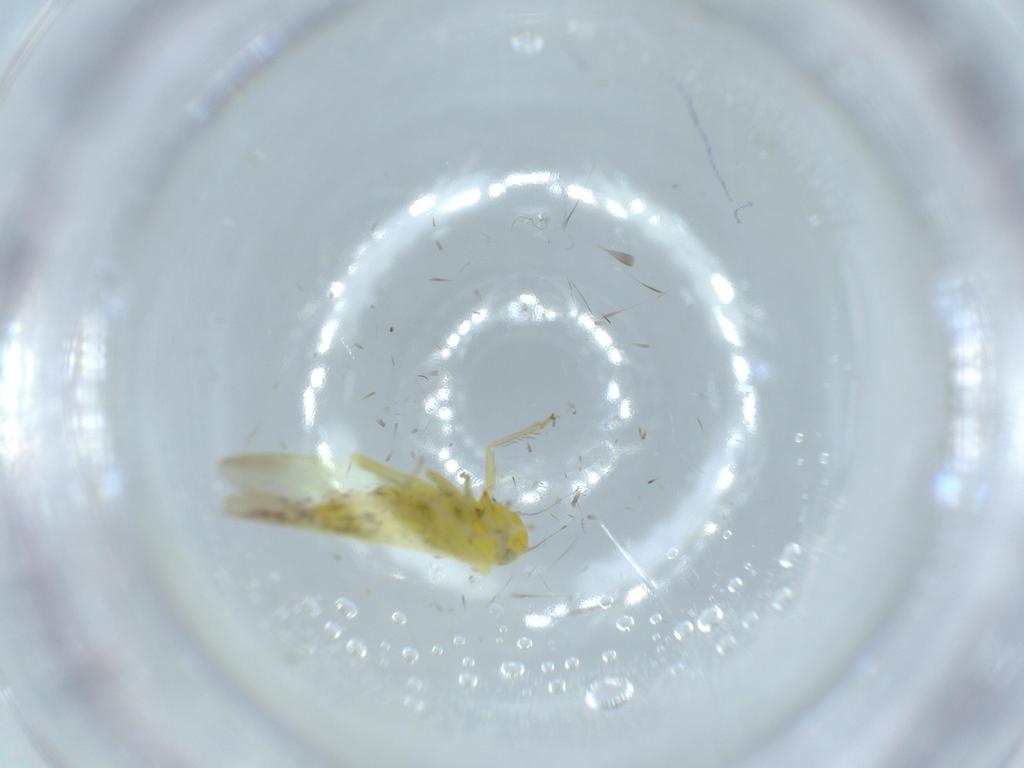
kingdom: Animalia
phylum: Arthropoda
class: Insecta
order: Hemiptera
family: Cicadellidae
